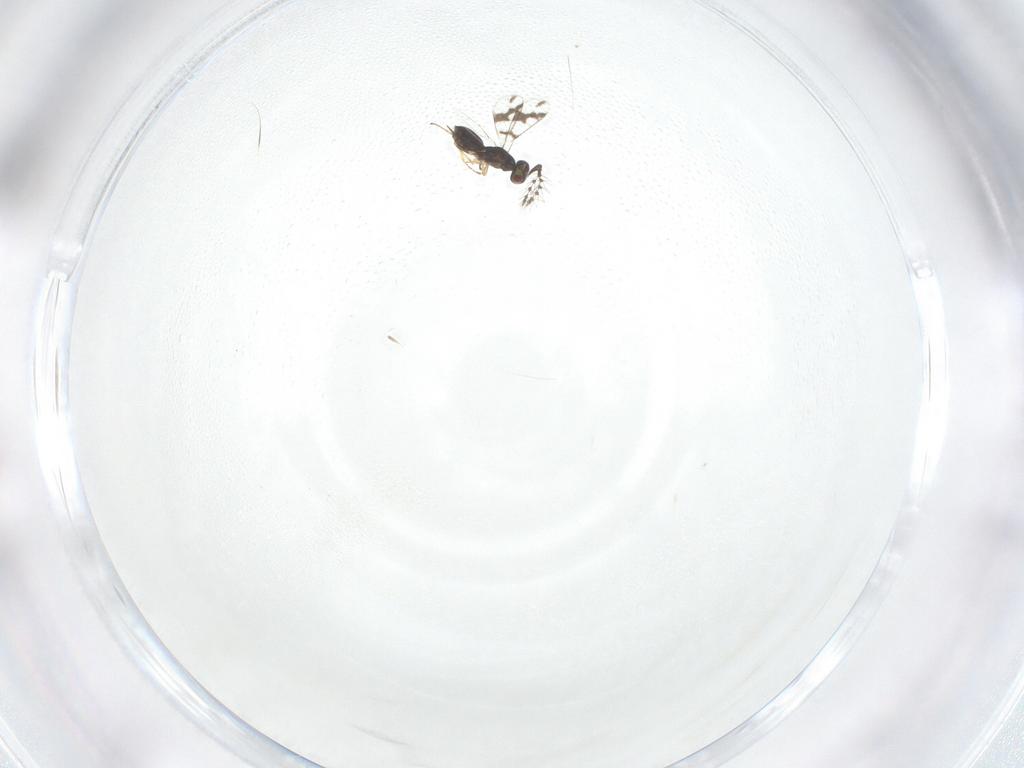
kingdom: Animalia
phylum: Arthropoda
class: Insecta
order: Hymenoptera
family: Eulophidae
